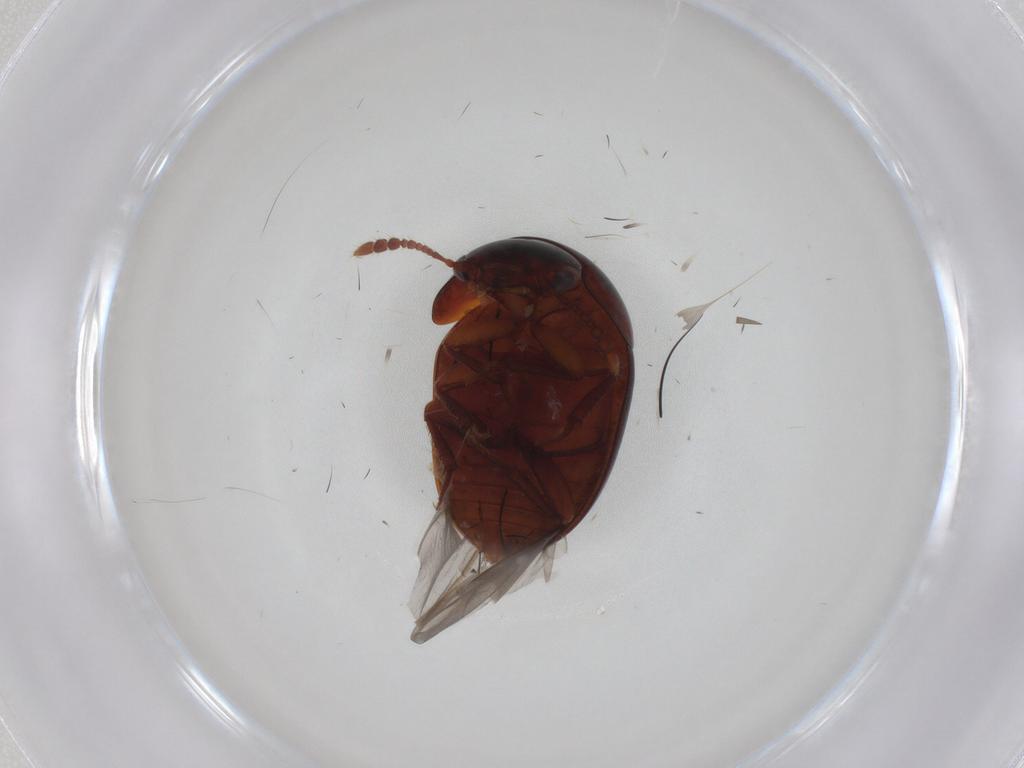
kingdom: Animalia
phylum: Arthropoda
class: Insecta
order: Coleoptera
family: Leiodidae
